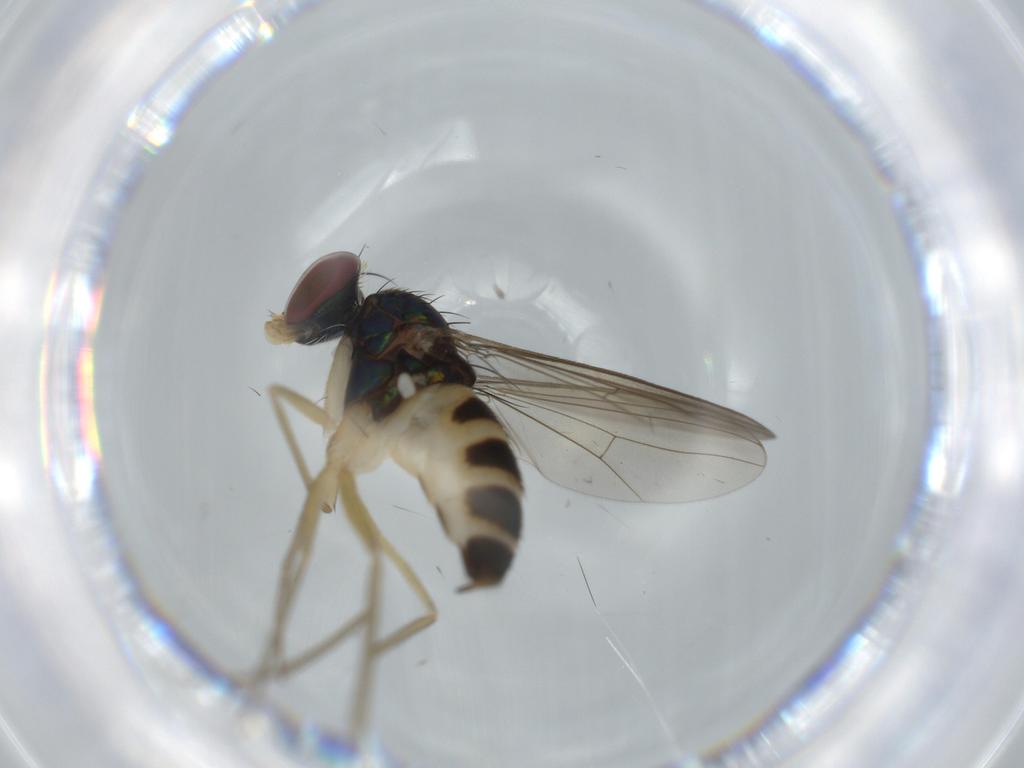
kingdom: Animalia
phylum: Arthropoda
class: Insecta
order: Diptera
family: Dolichopodidae
